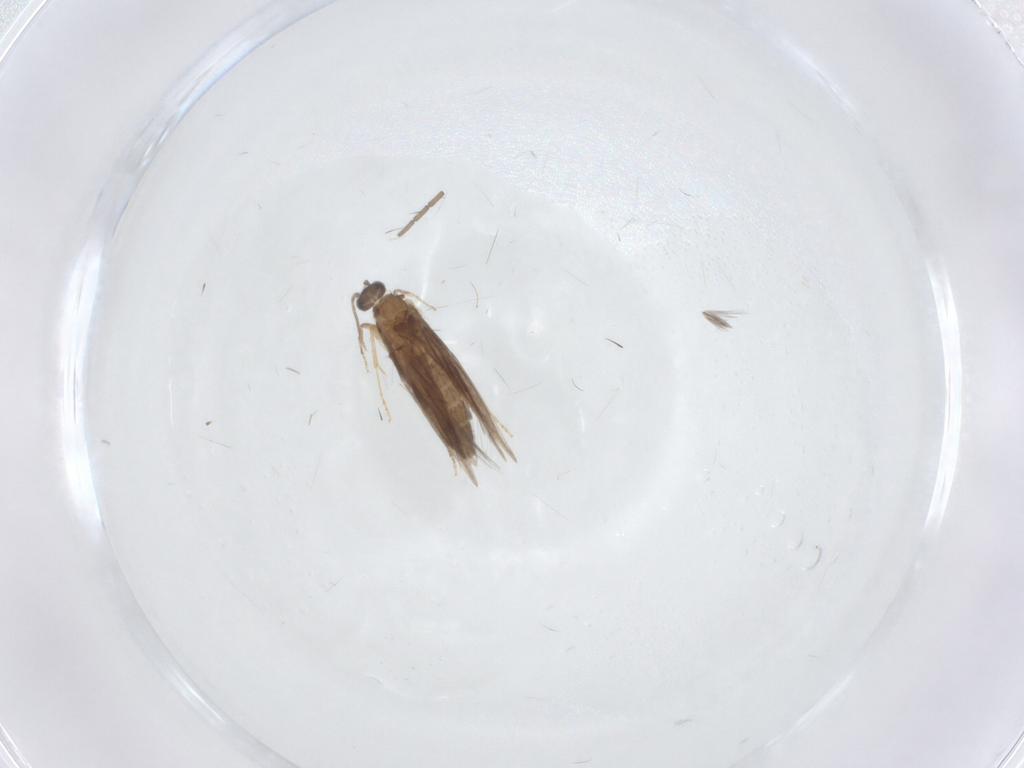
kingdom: Animalia
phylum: Arthropoda
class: Insecta
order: Trichoptera
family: Hydroptilidae
